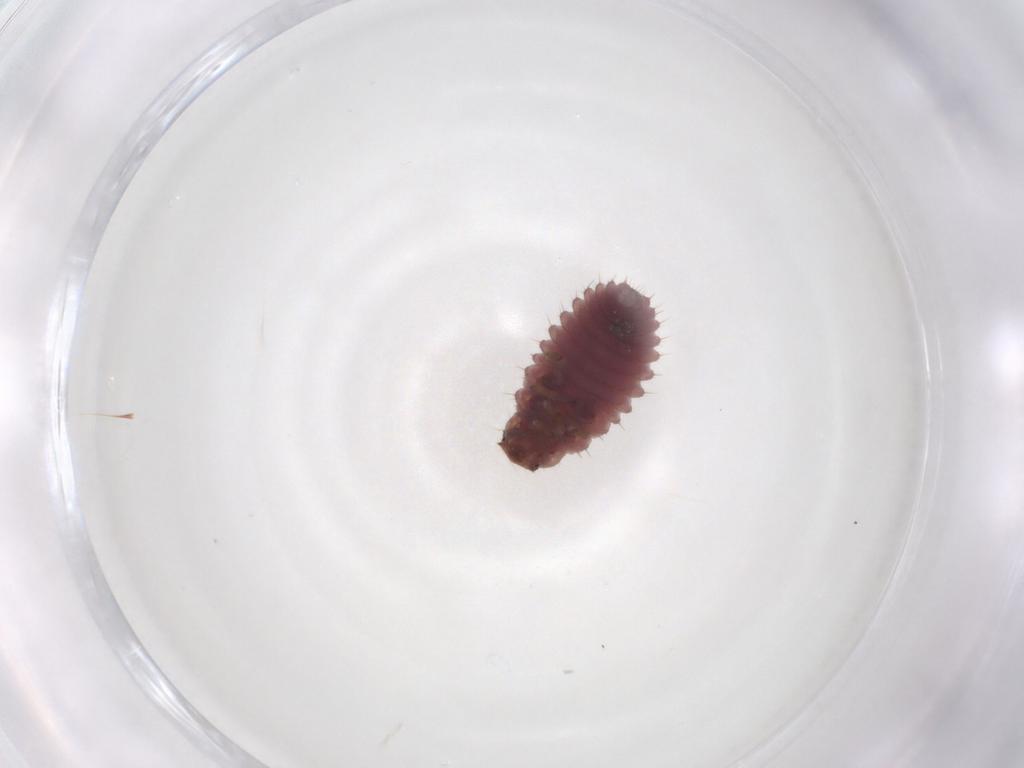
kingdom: Animalia
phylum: Arthropoda
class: Insecta
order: Coleoptera
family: Coccinellidae
